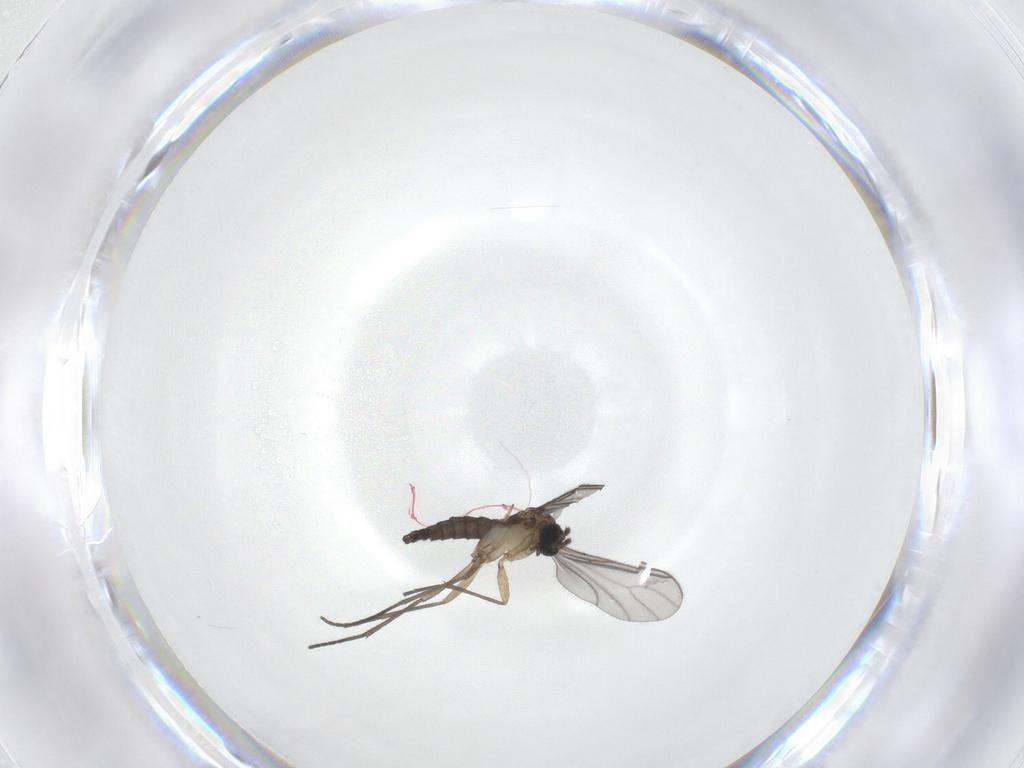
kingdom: Animalia
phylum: Arthropoda
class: Insecta
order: Diptera
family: Sciaridae
